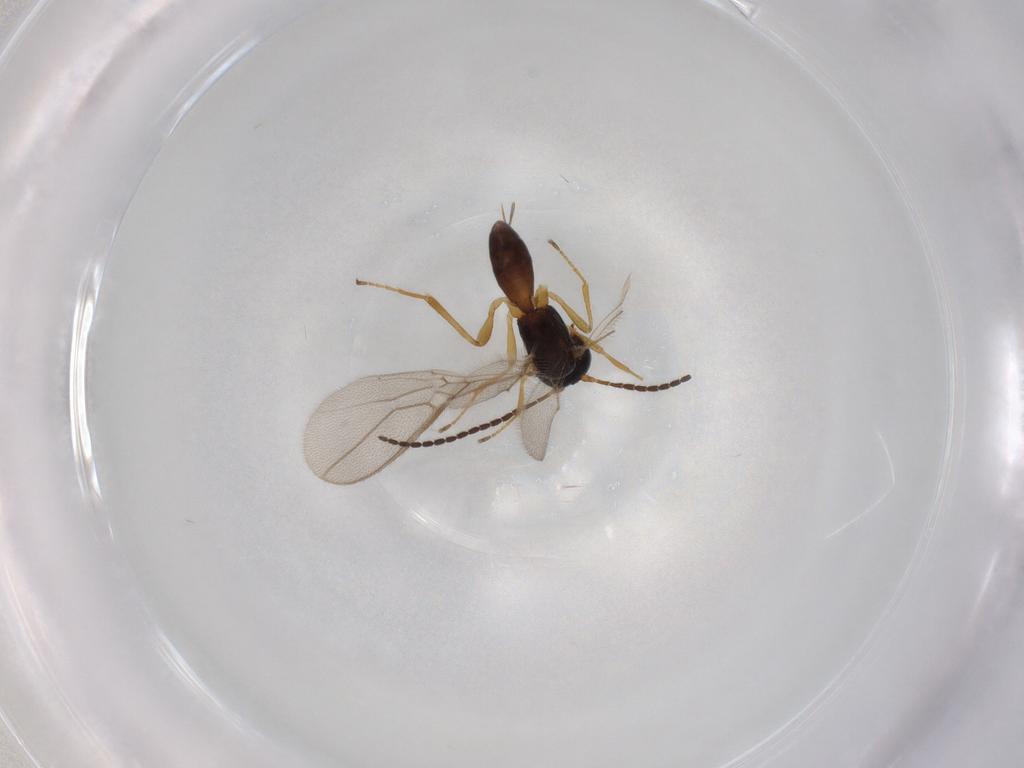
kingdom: Animalia
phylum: Arthropoda
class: Insecta
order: Hymenoptera
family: Braconidae
